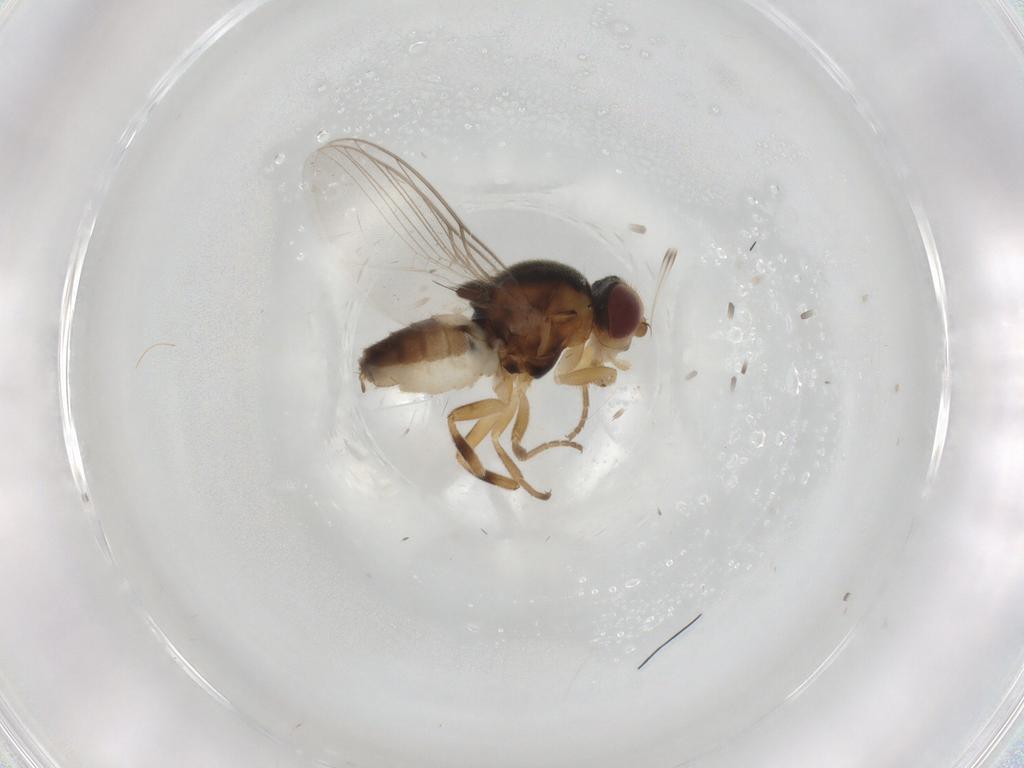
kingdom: Animalia
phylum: Arthropoda
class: Insecta
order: Diptera
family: Chloropidae
